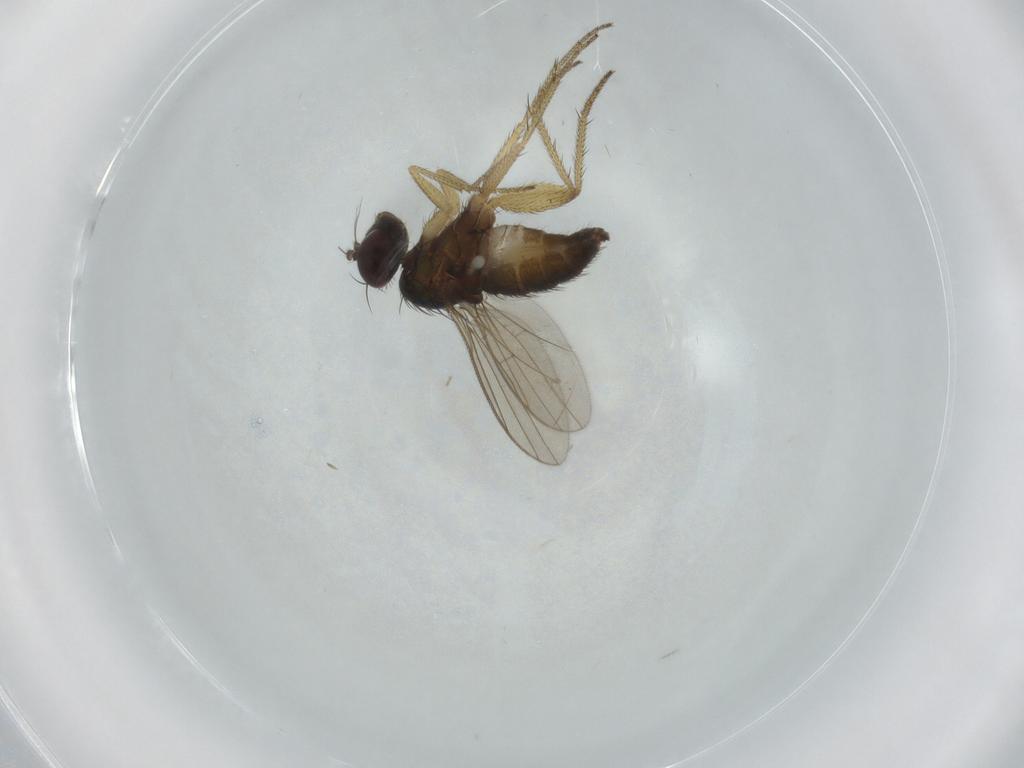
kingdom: Animalia
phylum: Arthropoda
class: Insecta
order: Diptera
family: Dolichopodidae
